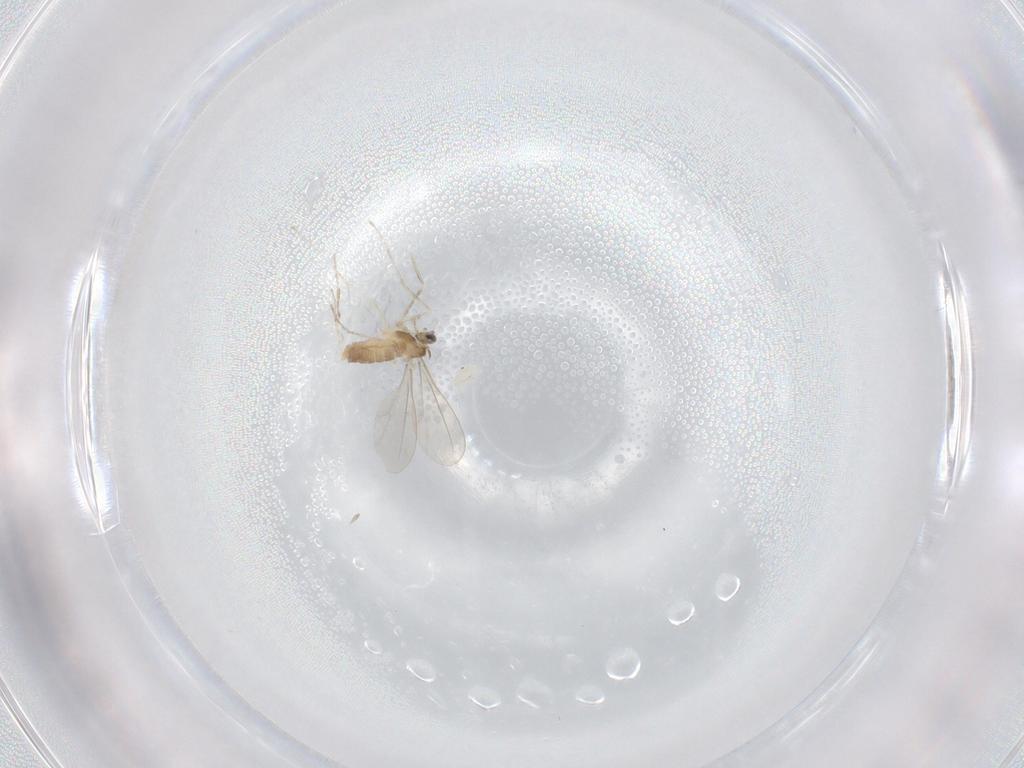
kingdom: Animalia
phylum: Arthropoda
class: Insecta
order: Diptera
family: Cecidomyiidae
